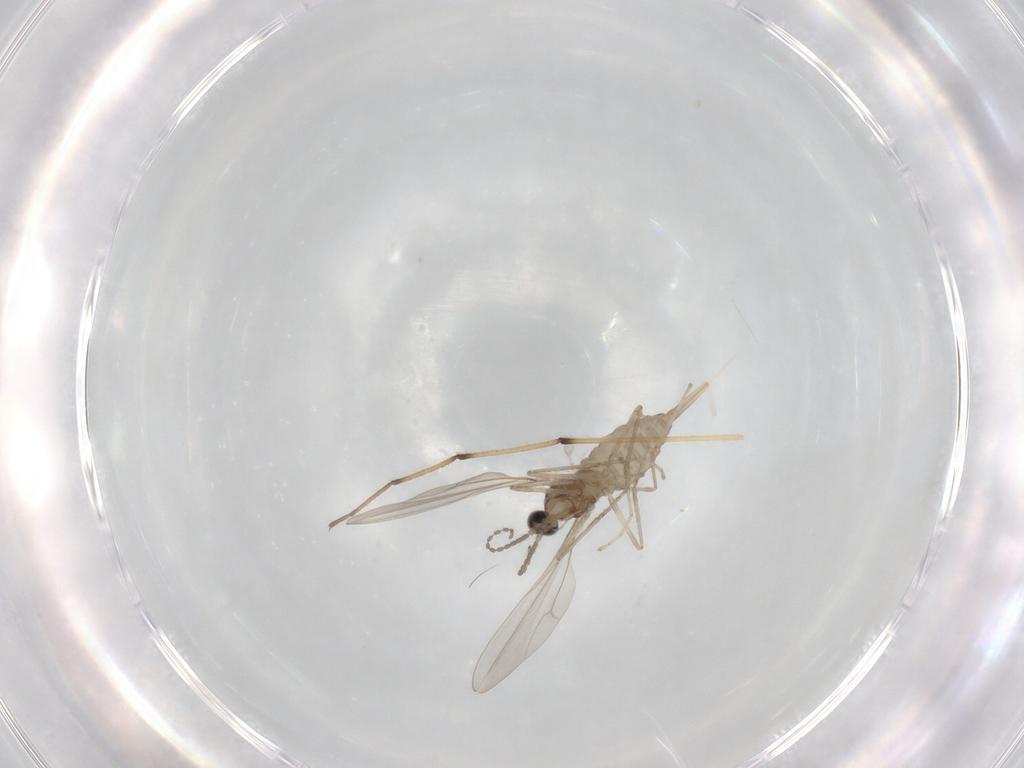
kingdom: Animalia
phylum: Arthropoda
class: Insecta
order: Diptera
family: Cecidomyiidae
